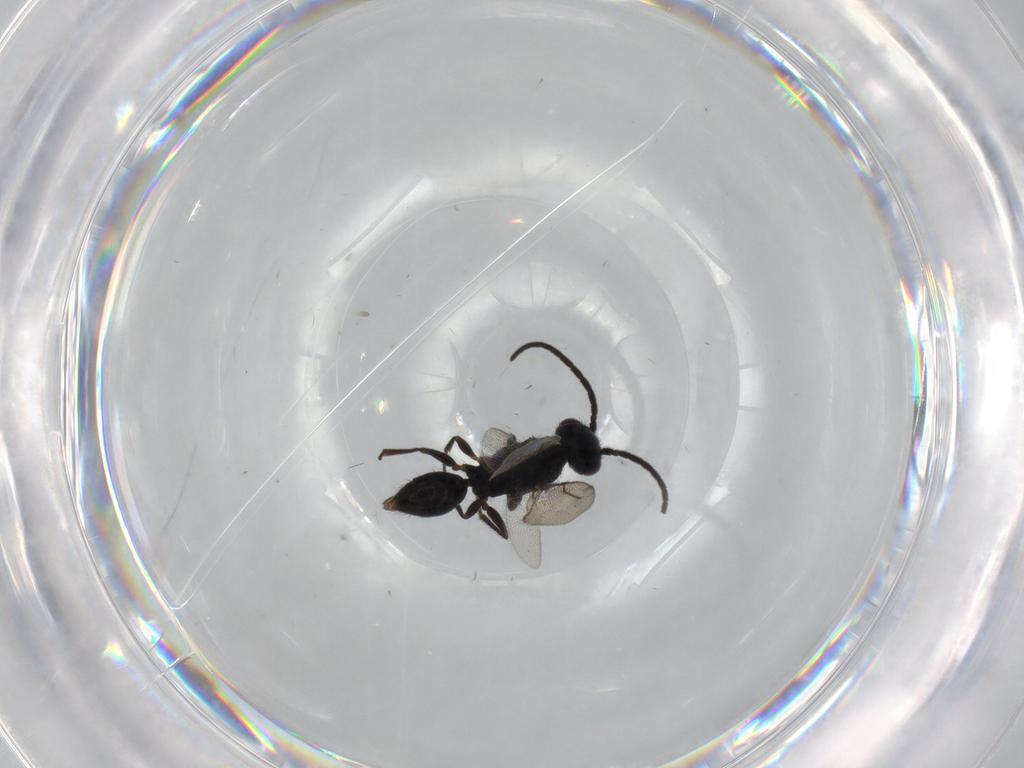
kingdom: Animalia
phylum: Arthropoda
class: Insecta
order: Hymenoptera
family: Bethylidae
